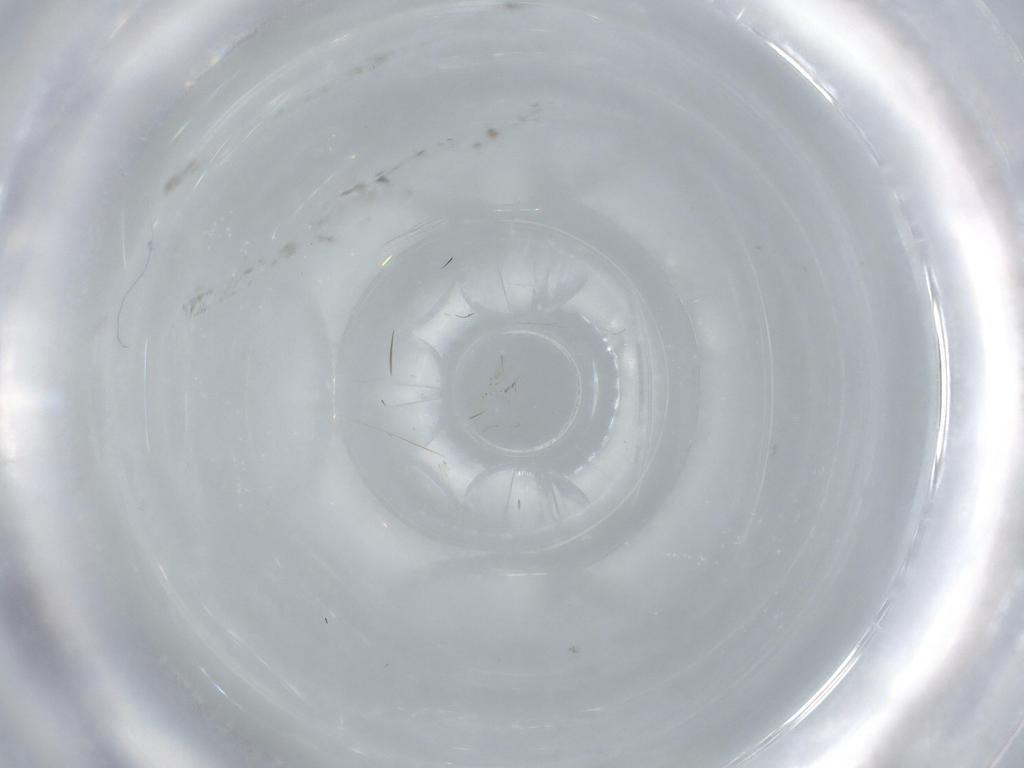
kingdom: Animalia
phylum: Arthropoda
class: Insecta
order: Diptera
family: Sciaridae
